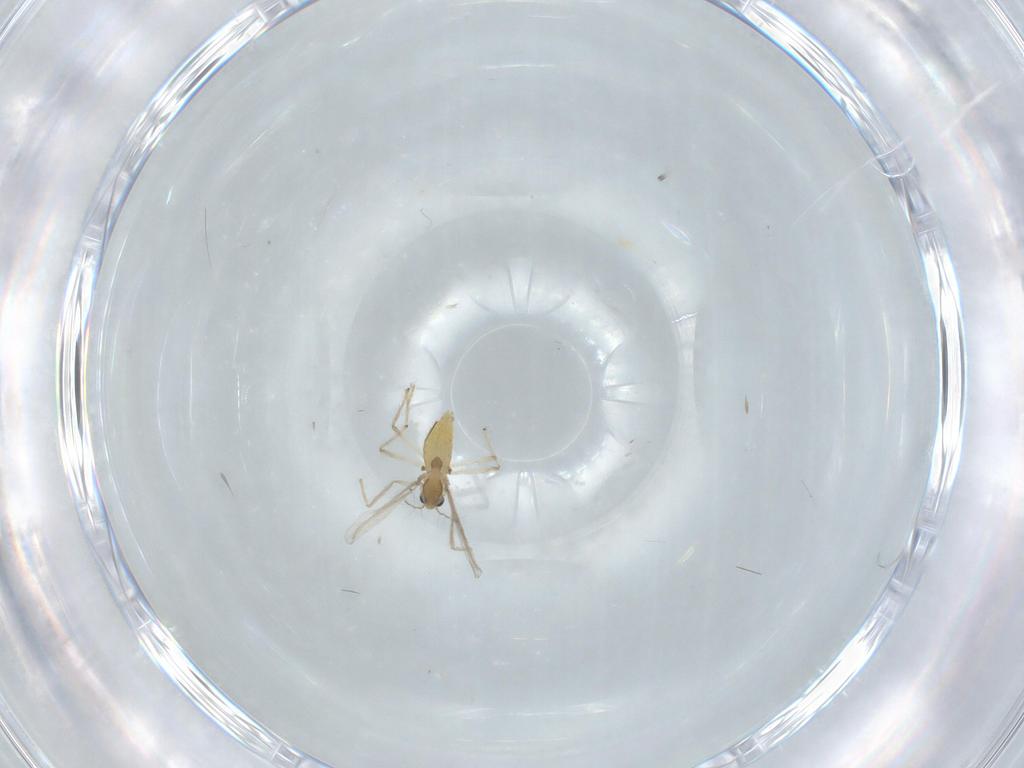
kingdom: Animalia
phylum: Arthropoda
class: Insecta
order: Diptera
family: Chironomidae
